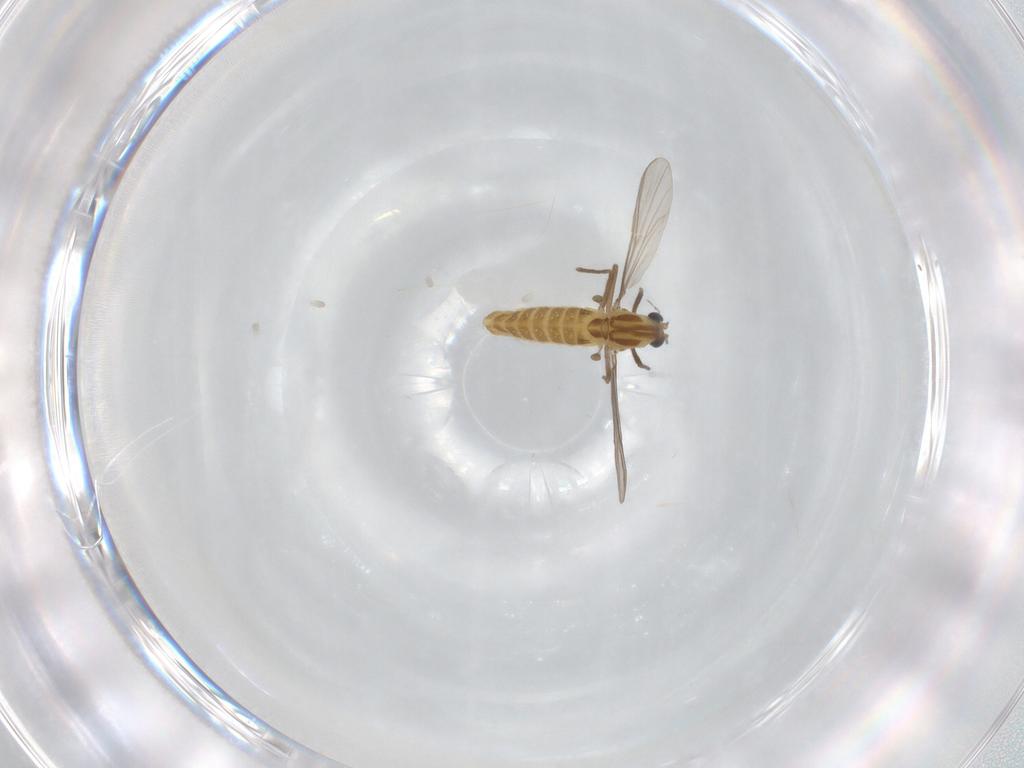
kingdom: Animalia
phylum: Arthropoda
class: Insecta
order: Diptera
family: Chironomidae
